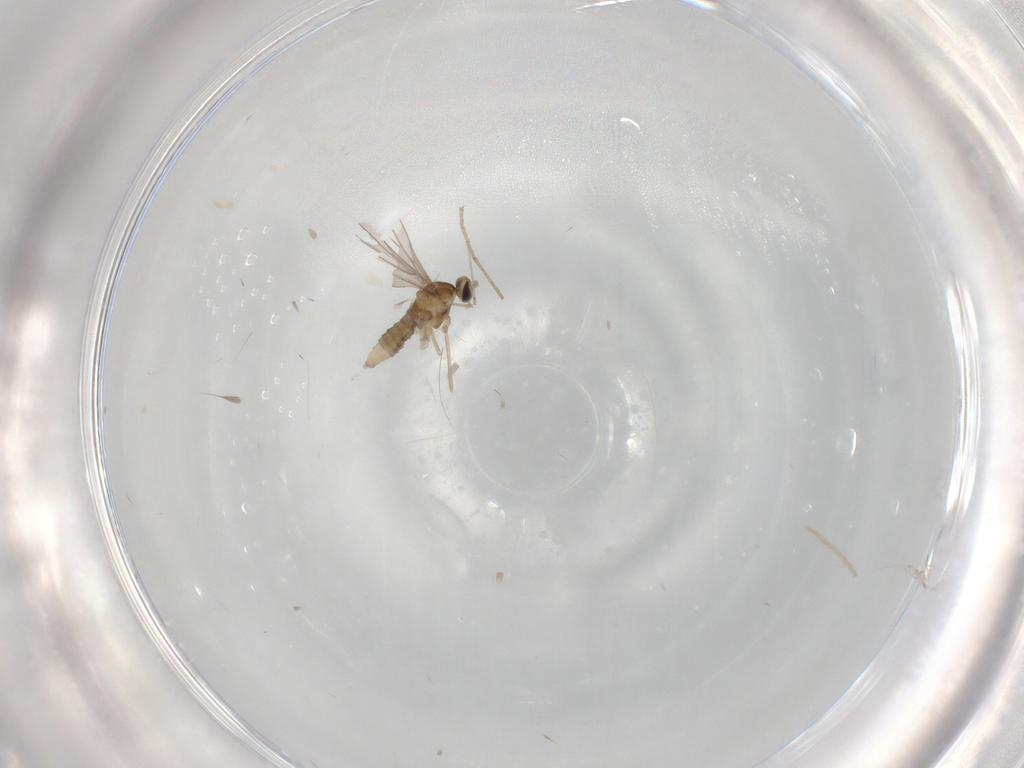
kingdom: Animalia
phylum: Arthropoda
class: Insecta
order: Diptera
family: Cecidomyiidae
